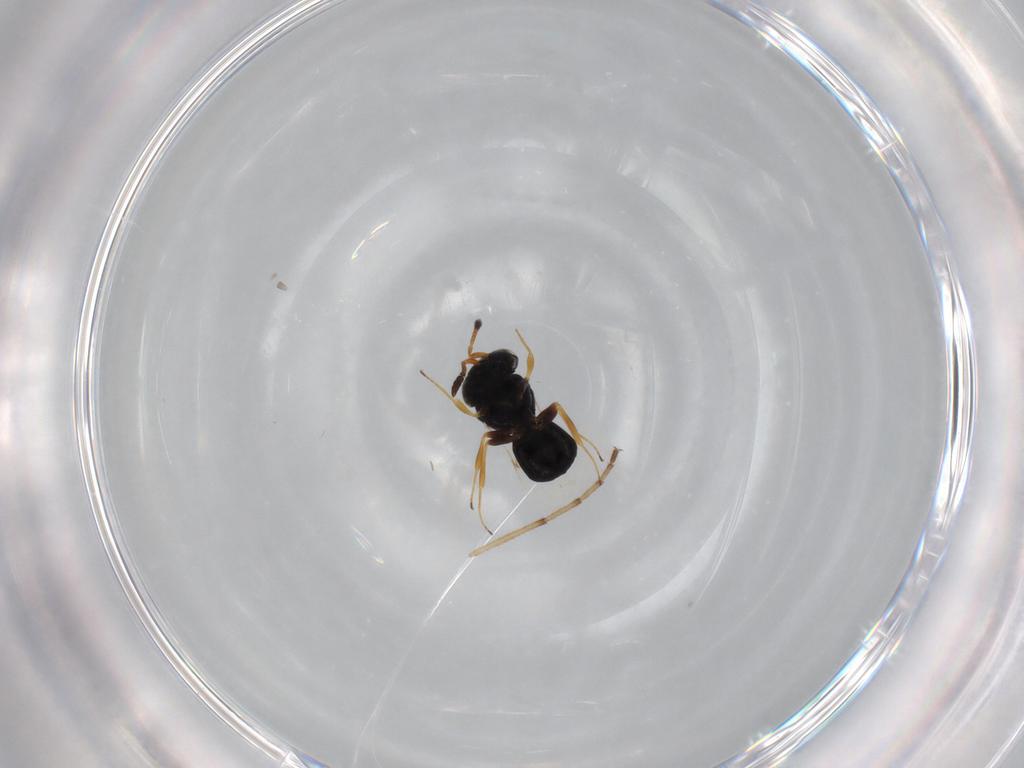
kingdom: Animalia
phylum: Arthropoda
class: Insecta
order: Hymenoptera
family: Scelionidae
